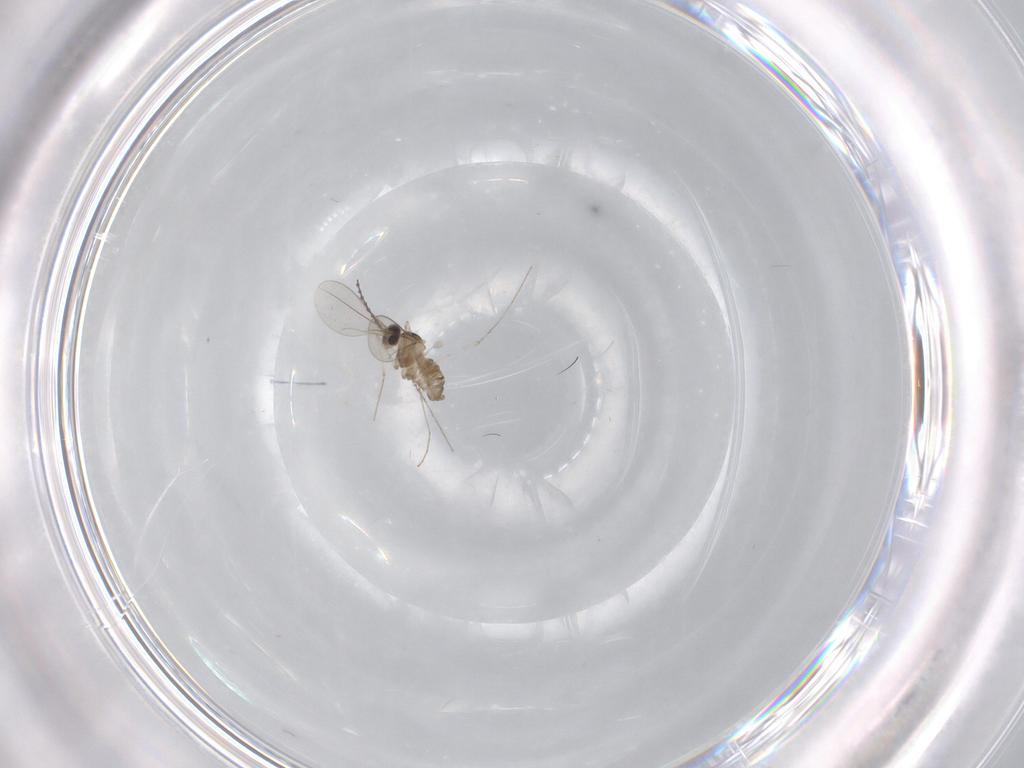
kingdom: Animalia
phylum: Arthropoda
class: Insecta
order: Diptera
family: Cecidomyiidae
